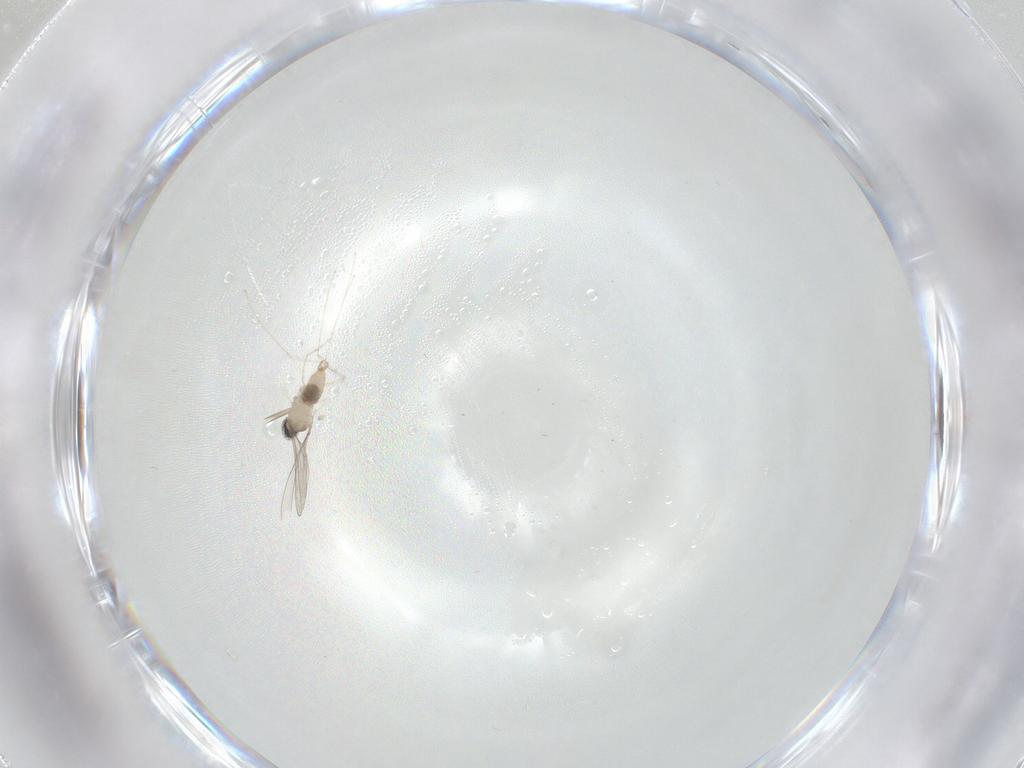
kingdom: Animalia
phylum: Arthropoda
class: Insecta
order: Diptera
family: Cecidomyiidae
